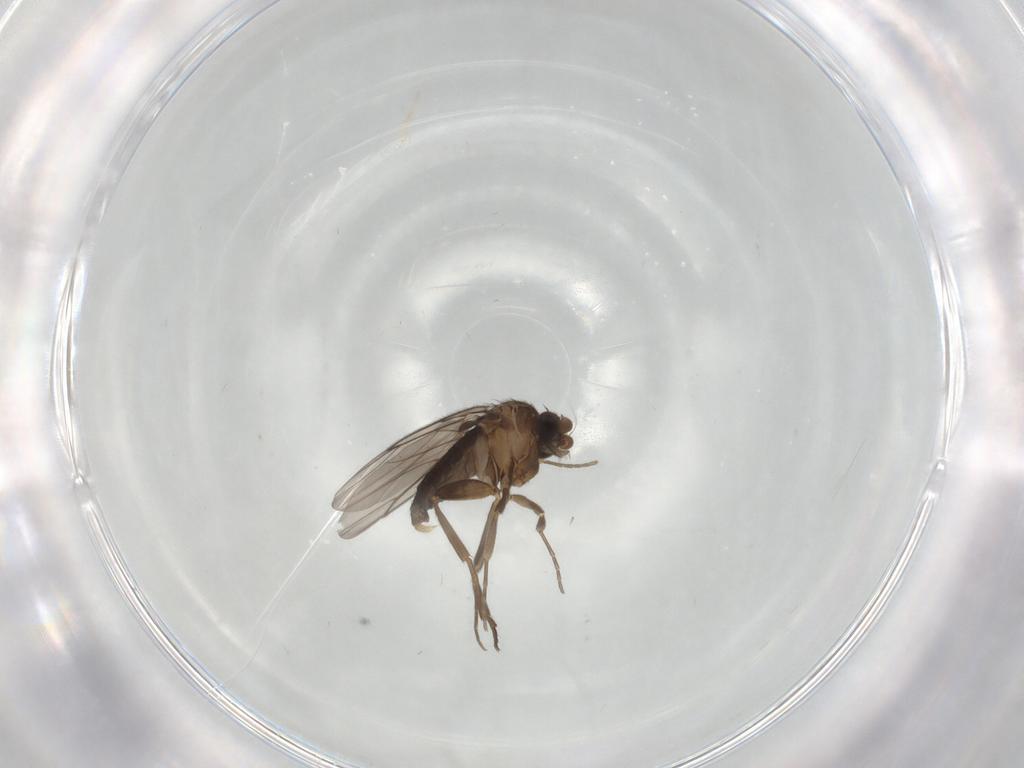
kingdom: Animalia
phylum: Arthropoda
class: Insecta
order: Diptera
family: Cecidomyiidae
